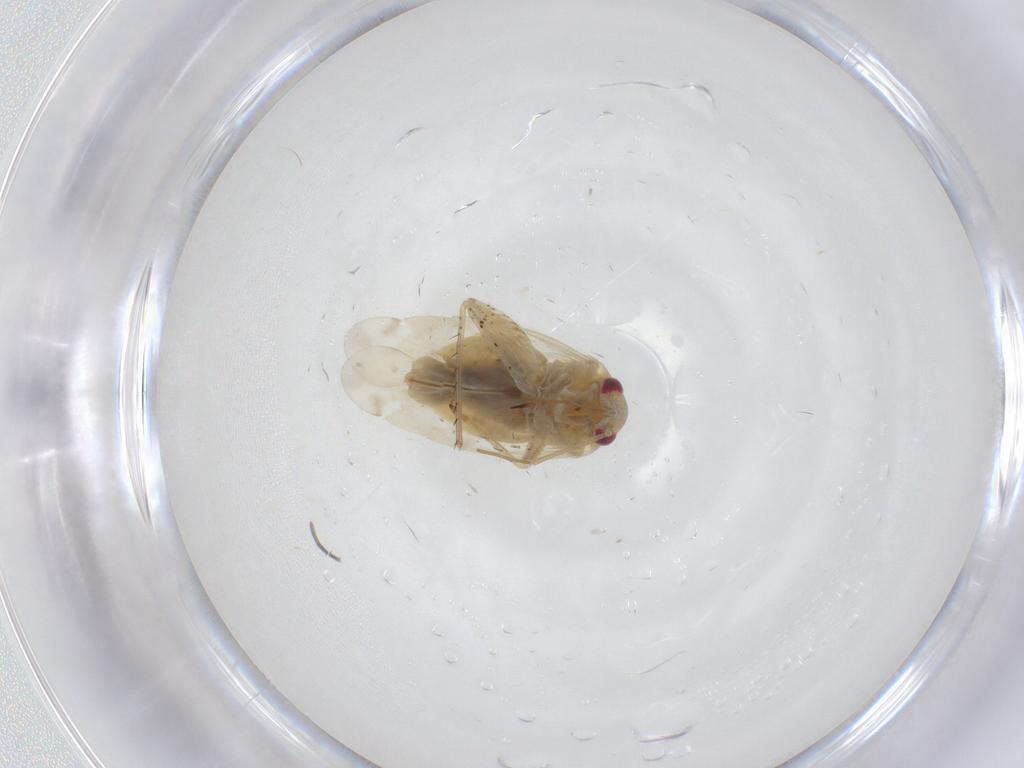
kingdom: Animalia
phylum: Arthropoda
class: Insecta
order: Hemiptera
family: Miridae
